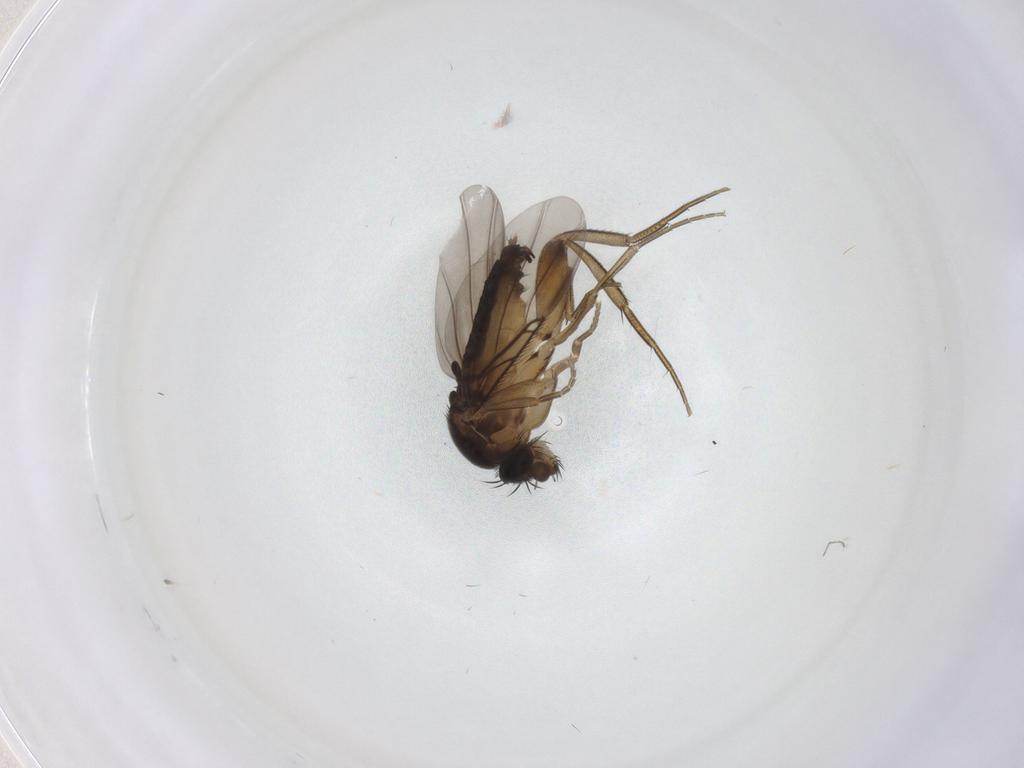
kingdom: Animalia
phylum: Arthropoda
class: Insecta
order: Diptera
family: Phoridae
